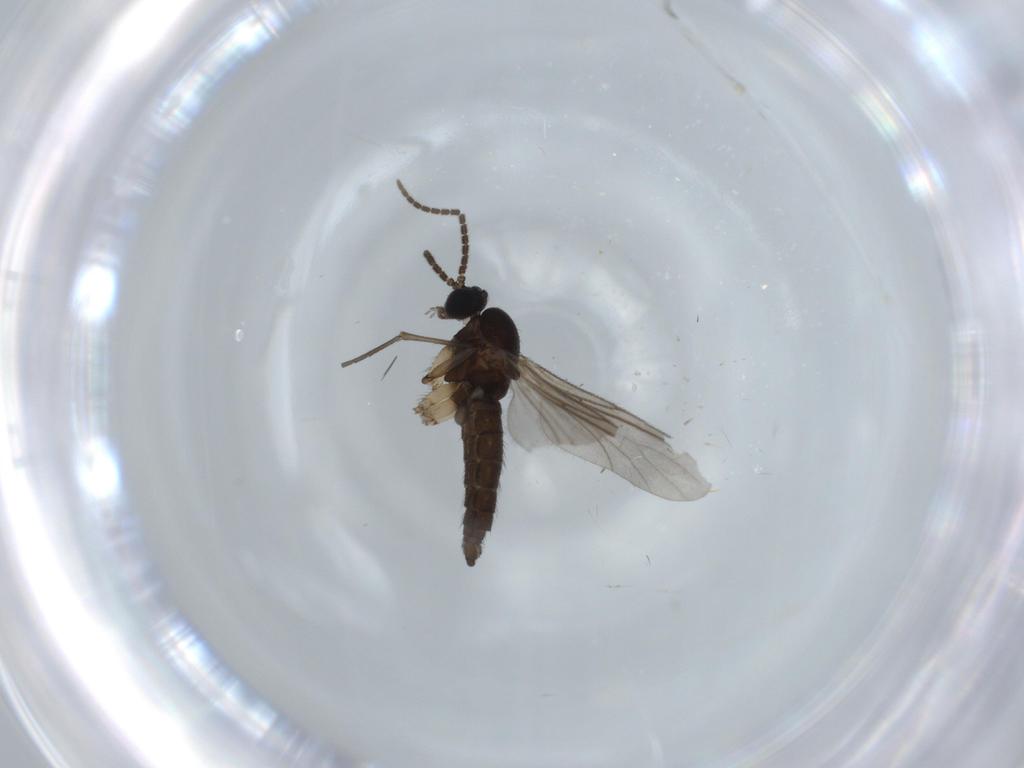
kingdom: Animalia
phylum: Arthropoda
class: Insecta
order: Diptera
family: Sciaridae
